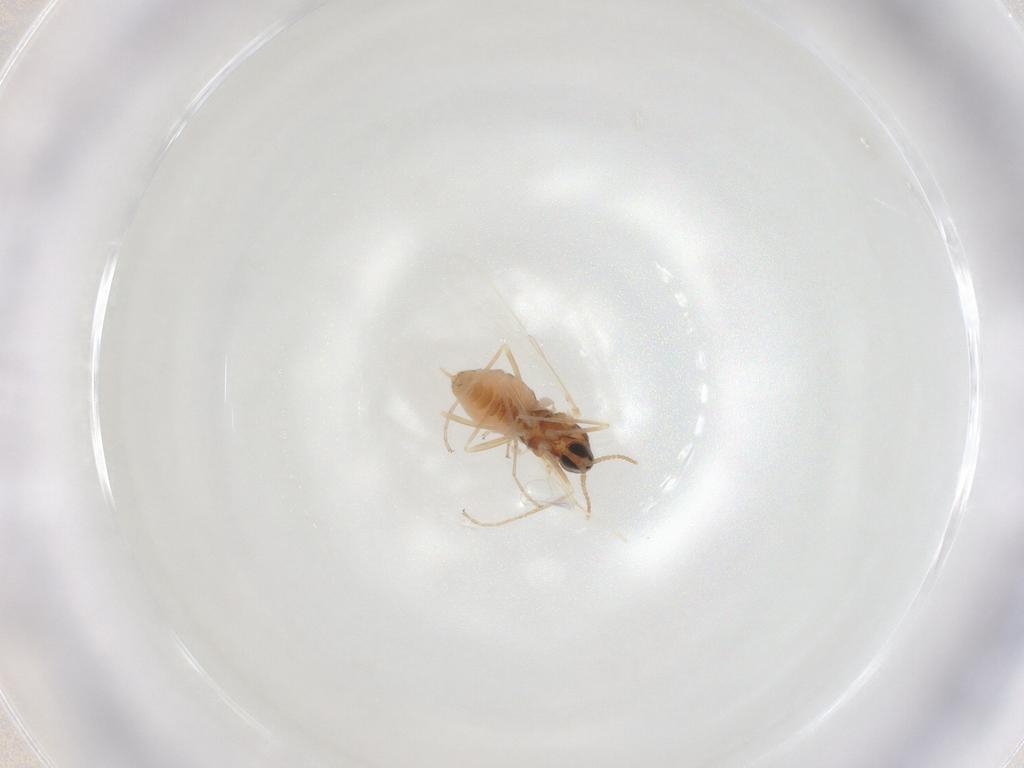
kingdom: Animalia
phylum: Arthropoda
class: Insecta
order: Diptera
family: Cecidomyiidae
